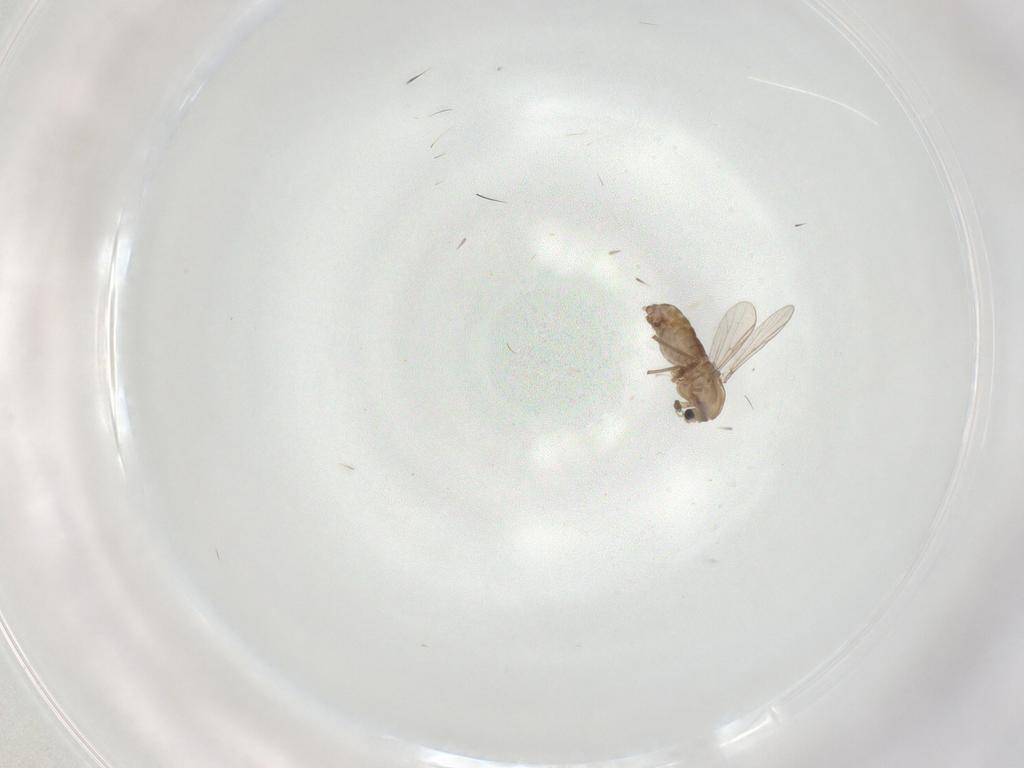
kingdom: Animalia
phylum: Arthropoda
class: Insecta
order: Diptera
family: Chironomidae
